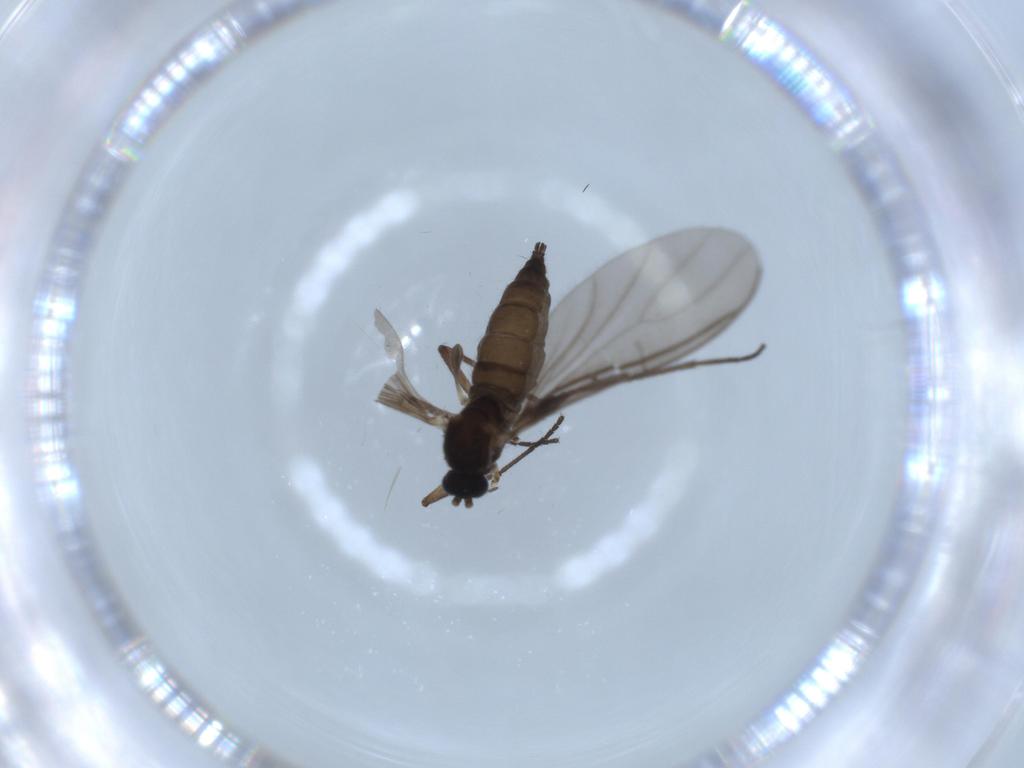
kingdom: Animalia
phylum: Arthropoda
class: Insecta
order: Diptera
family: Sciaridae
